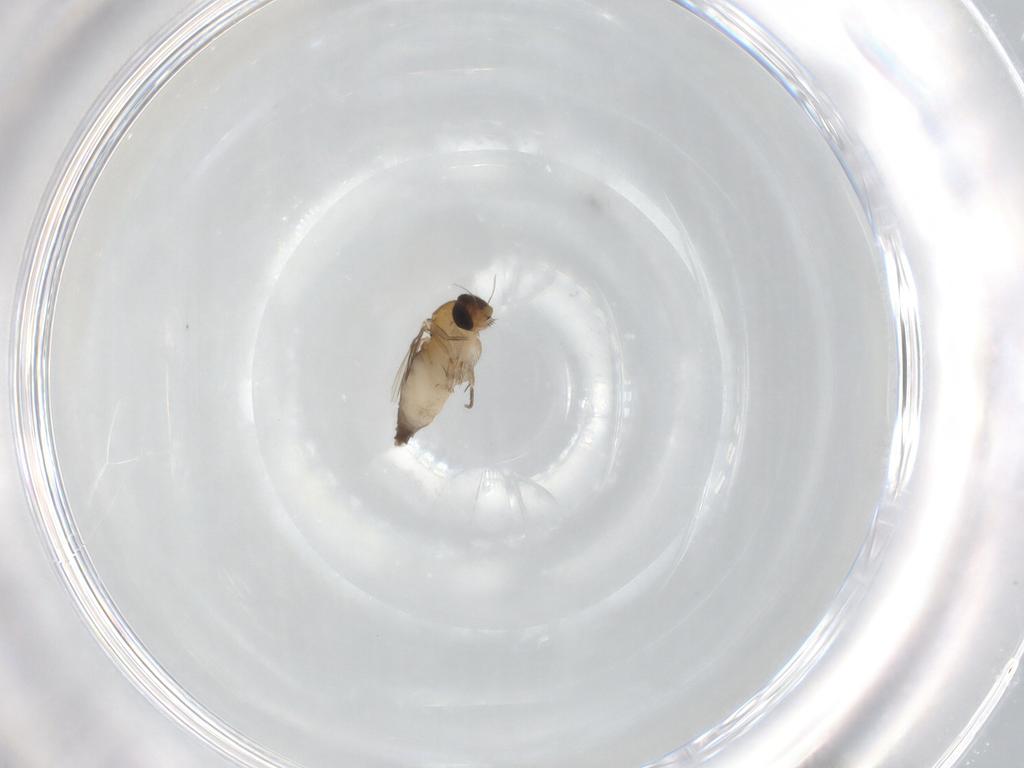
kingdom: Animalia
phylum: Arthropoda
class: Insecta
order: Diptera
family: Phoridae
